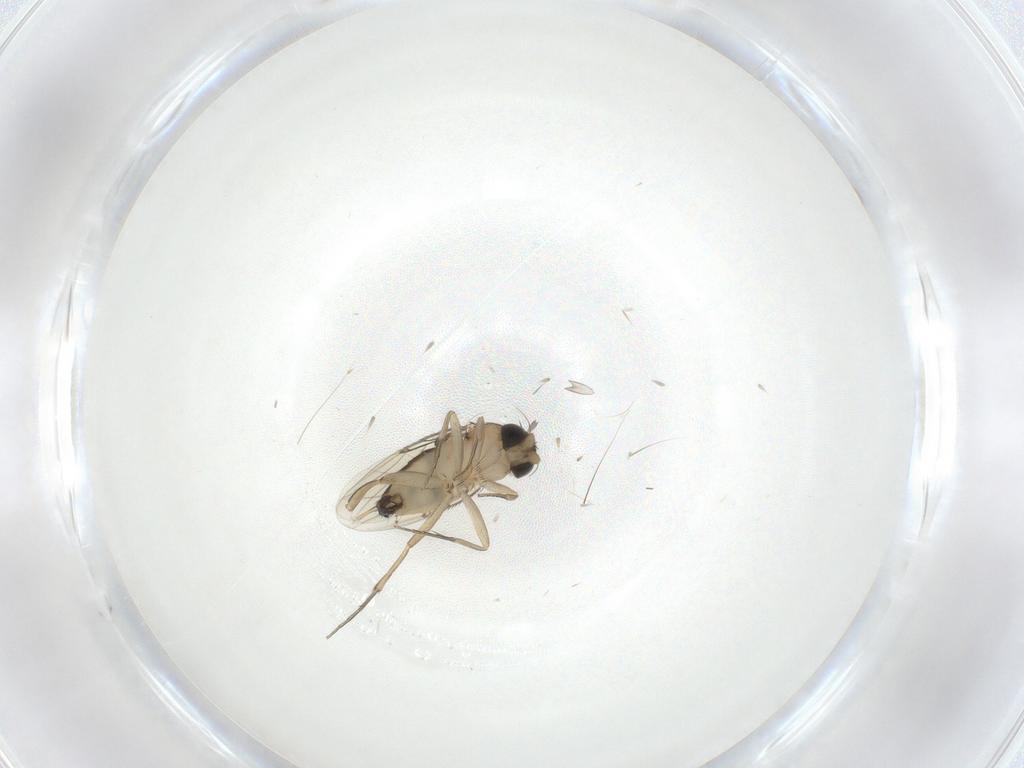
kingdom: Animalia
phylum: Arthropoda
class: Insecta
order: Diptera
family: Phoridae
